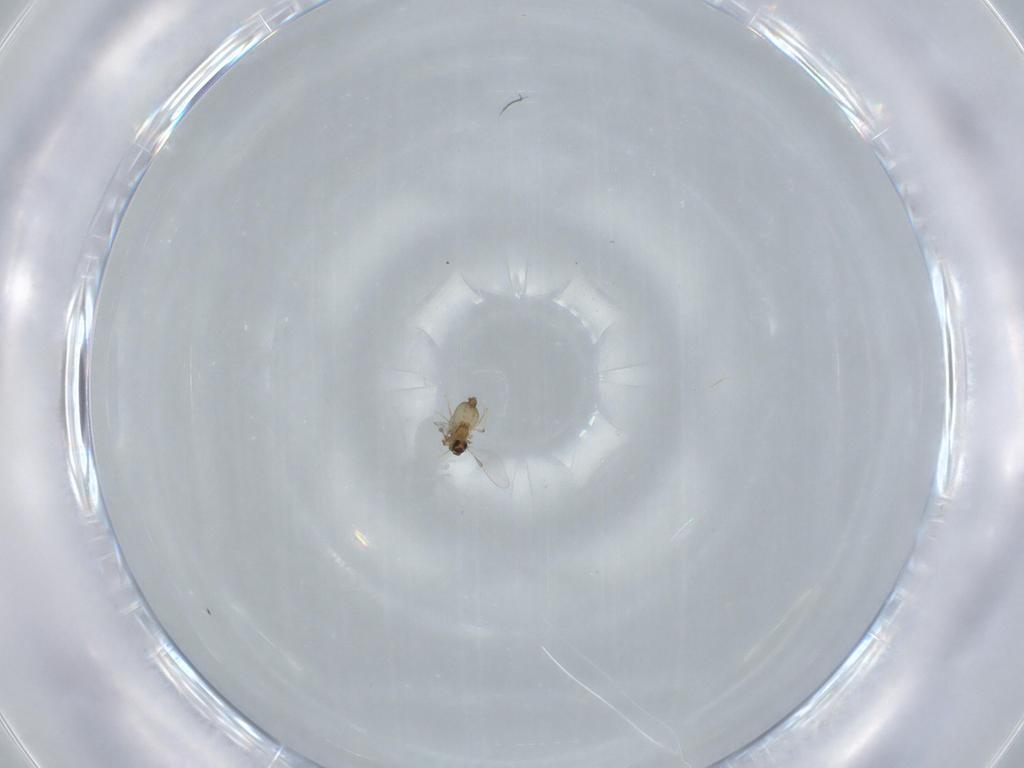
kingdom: Animalia
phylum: Arthropoda
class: Insecta
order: Diptera
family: Chironomidae
